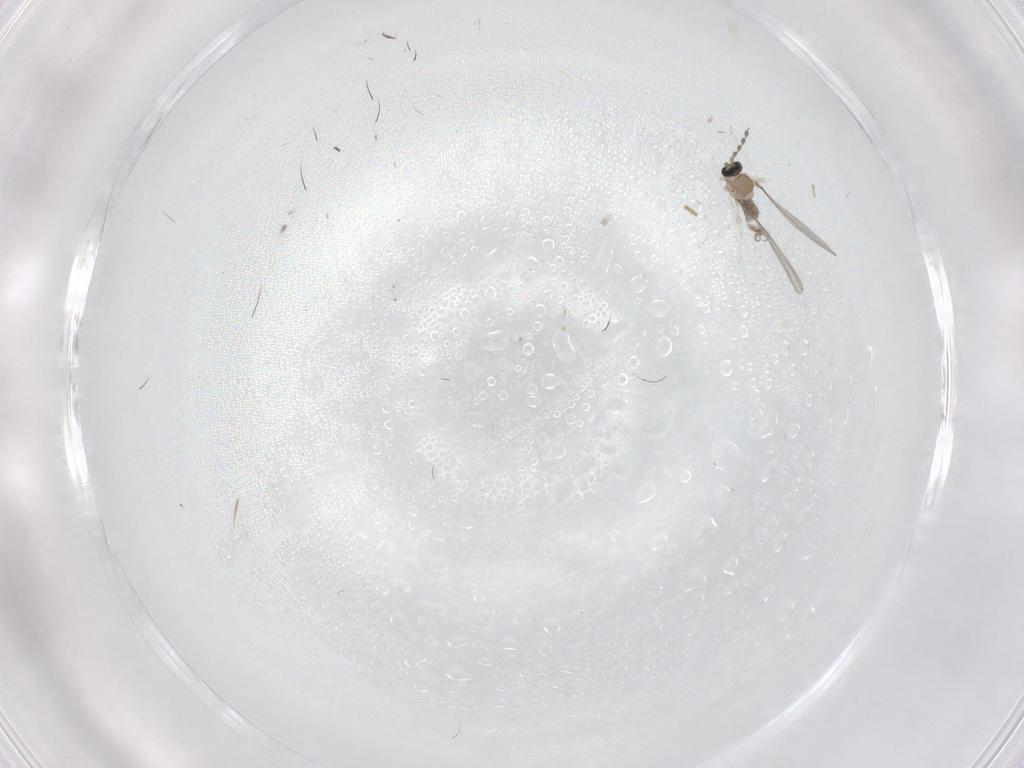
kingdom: Animalia
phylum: Arthropoda
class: Insecta
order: Diptera
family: Cecidomyiidae
